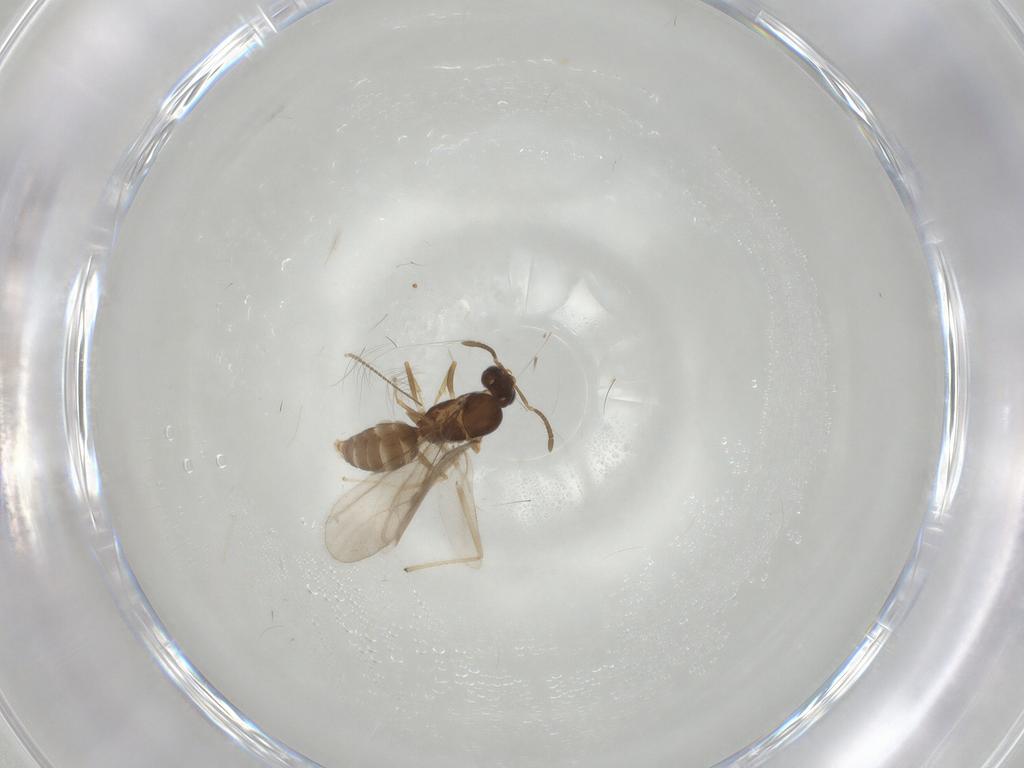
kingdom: Animalia
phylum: Arthropoda
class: Insecta
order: Hymenoptera
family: Formicidae
